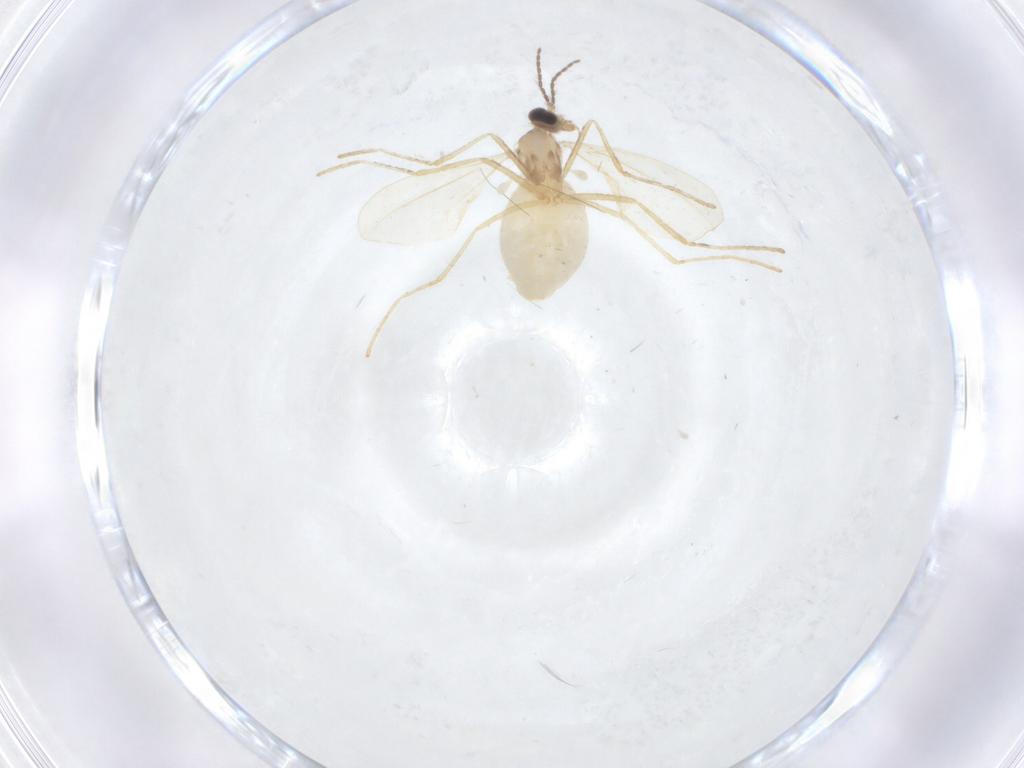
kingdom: Animalia
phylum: Arthropoda
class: Insecta
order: Diptera
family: Cecidomyiidae
